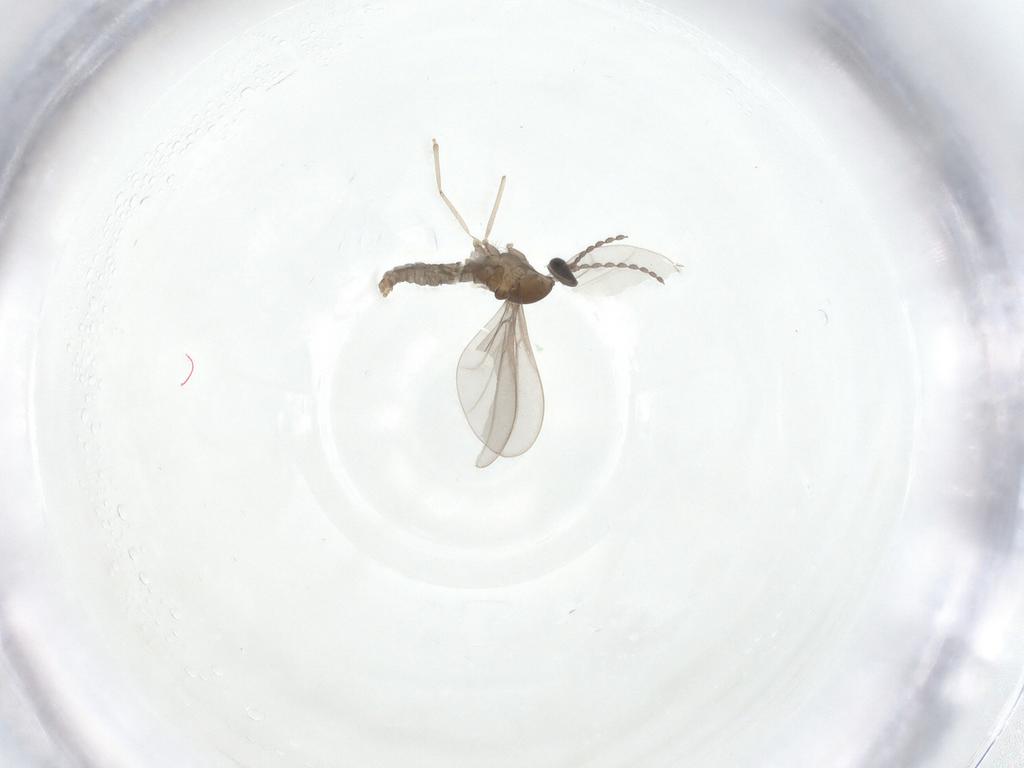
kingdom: Animalia
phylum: Arthropoda
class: Insecta
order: Diptera
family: Cecidomyiidae
